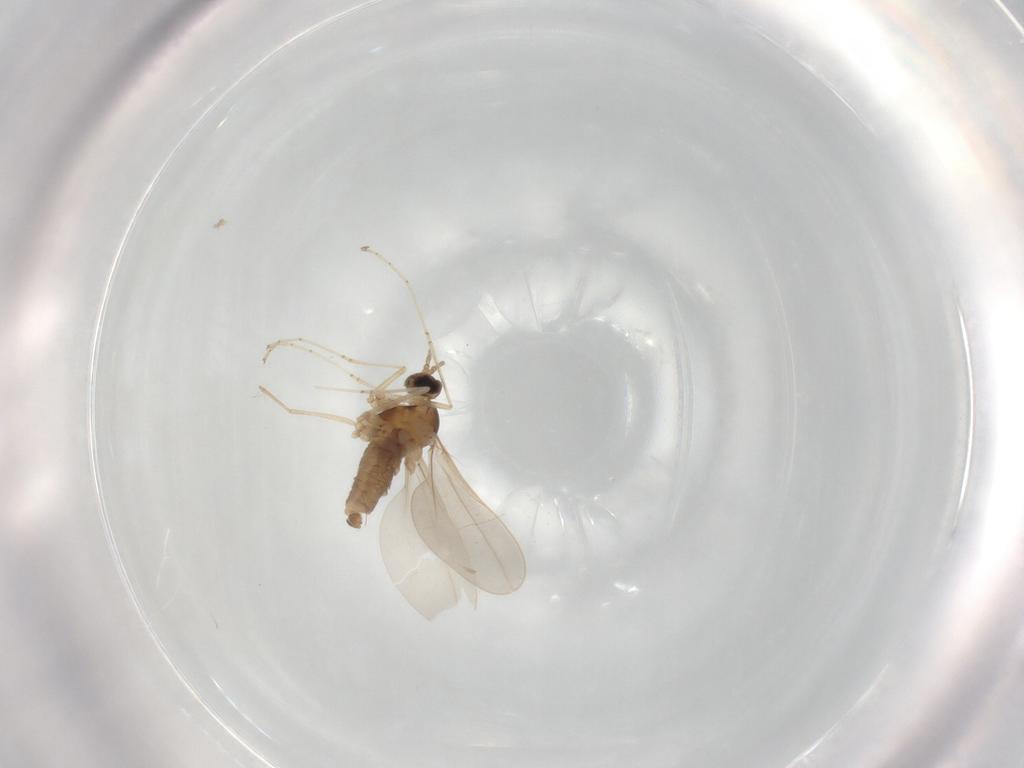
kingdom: Animalia
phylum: Arthropoda
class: Insecta
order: Diptera
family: Cecidomyiidae
